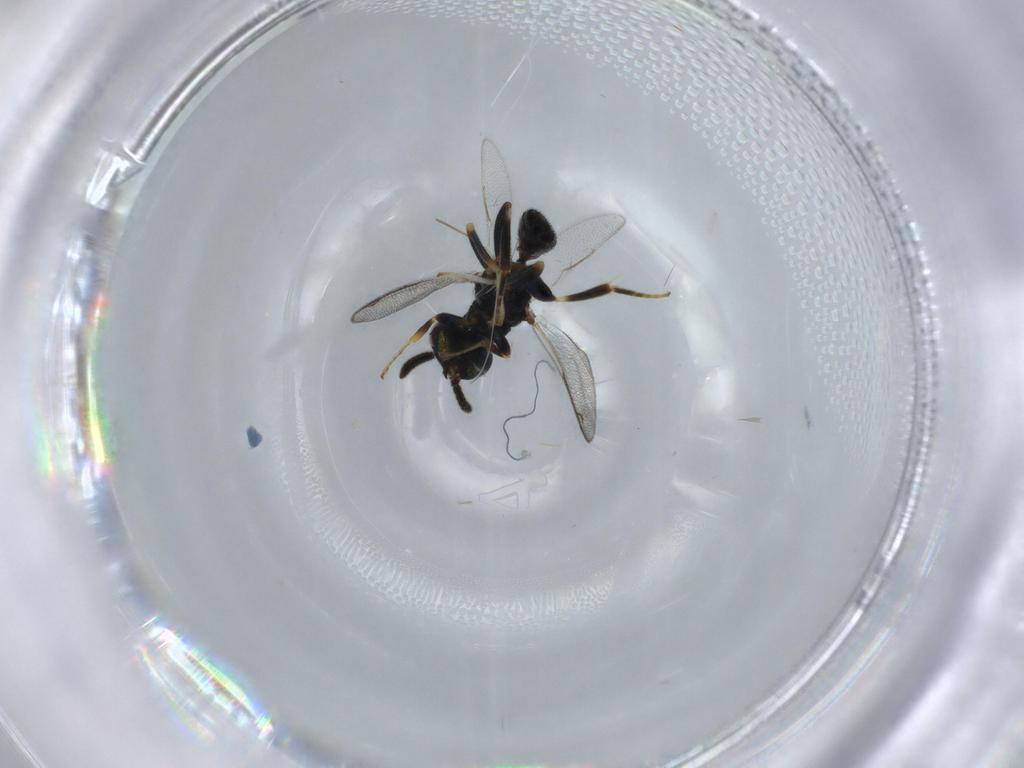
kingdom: Animalia
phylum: Arthropoda
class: Insecta
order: Hymenoptera
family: Cleonyminae
